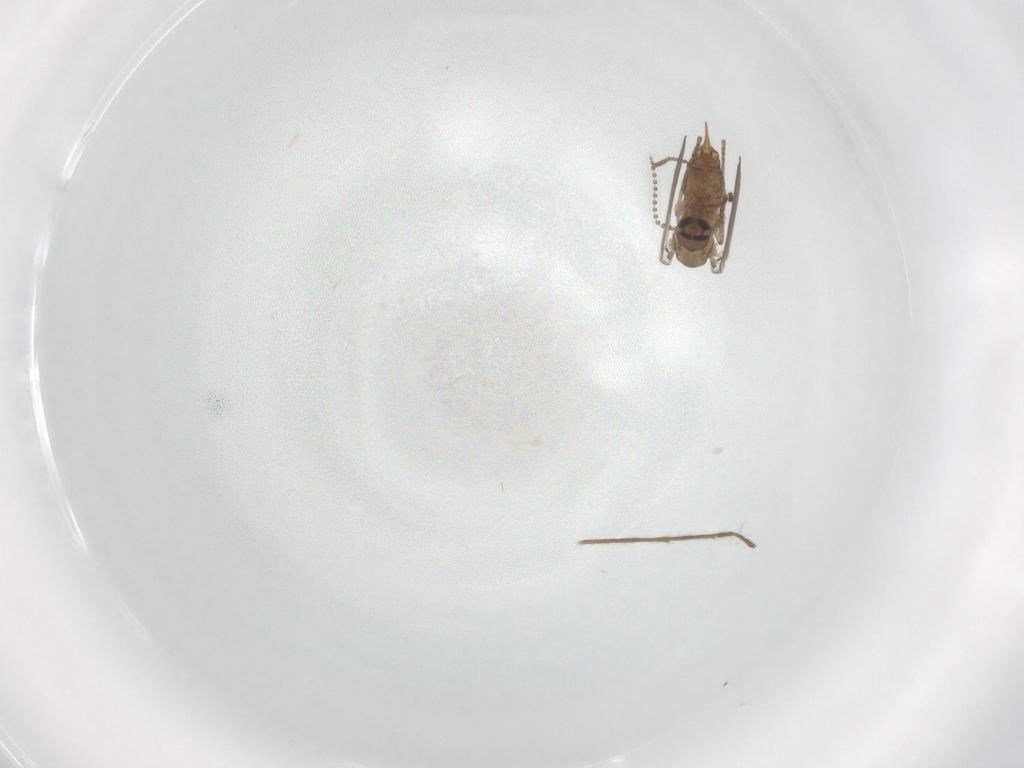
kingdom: Animalia
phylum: Arthropoda
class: Insecta
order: Diptera
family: Psychodidae
